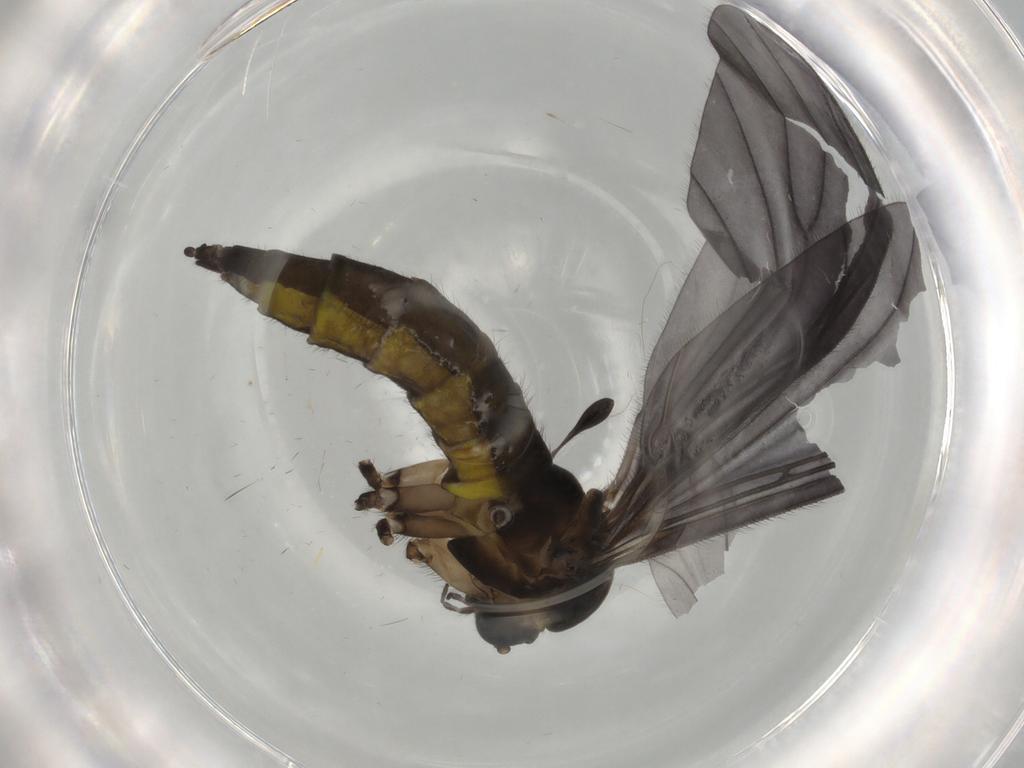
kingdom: Animalia
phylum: Arthropoda
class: Insecta
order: Diptera
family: Sciaridae
